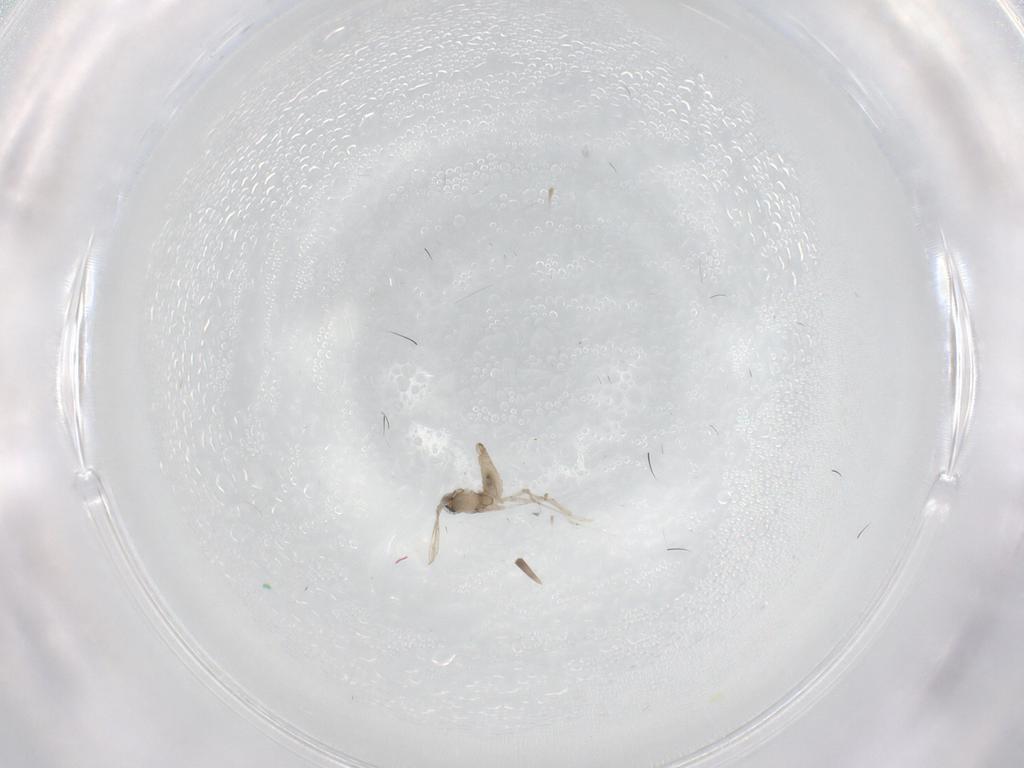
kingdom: Animalia
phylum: Arthropoda
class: Insecta
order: Diptera
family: Cecidomyiidae
